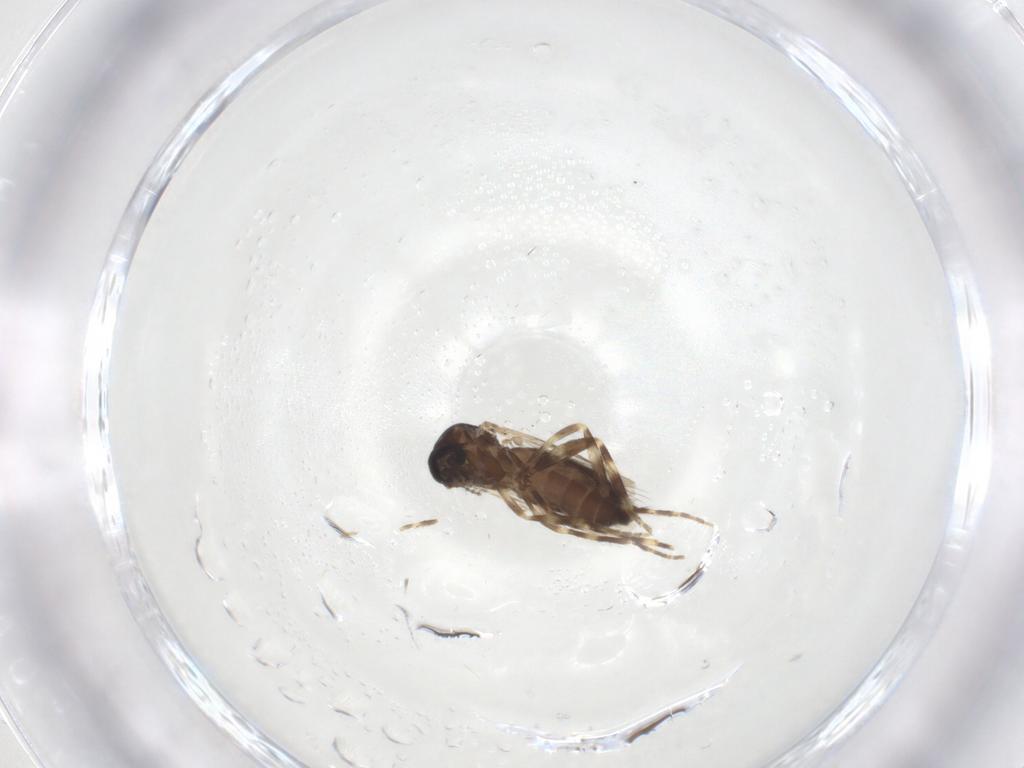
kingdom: Animalia
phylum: Arthropoda
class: Insecta
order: Diptera
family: Ceratopogonidae
